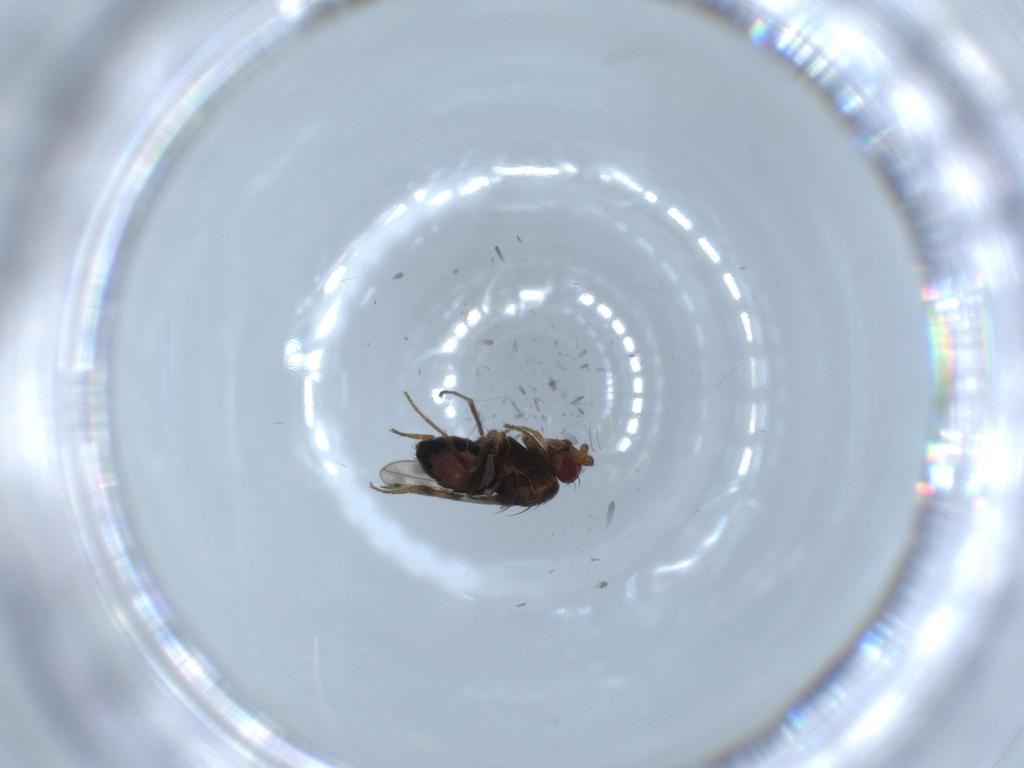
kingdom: Animalia
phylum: Arthropoda
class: Insecta
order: Diptera
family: Sphaeroceridae
